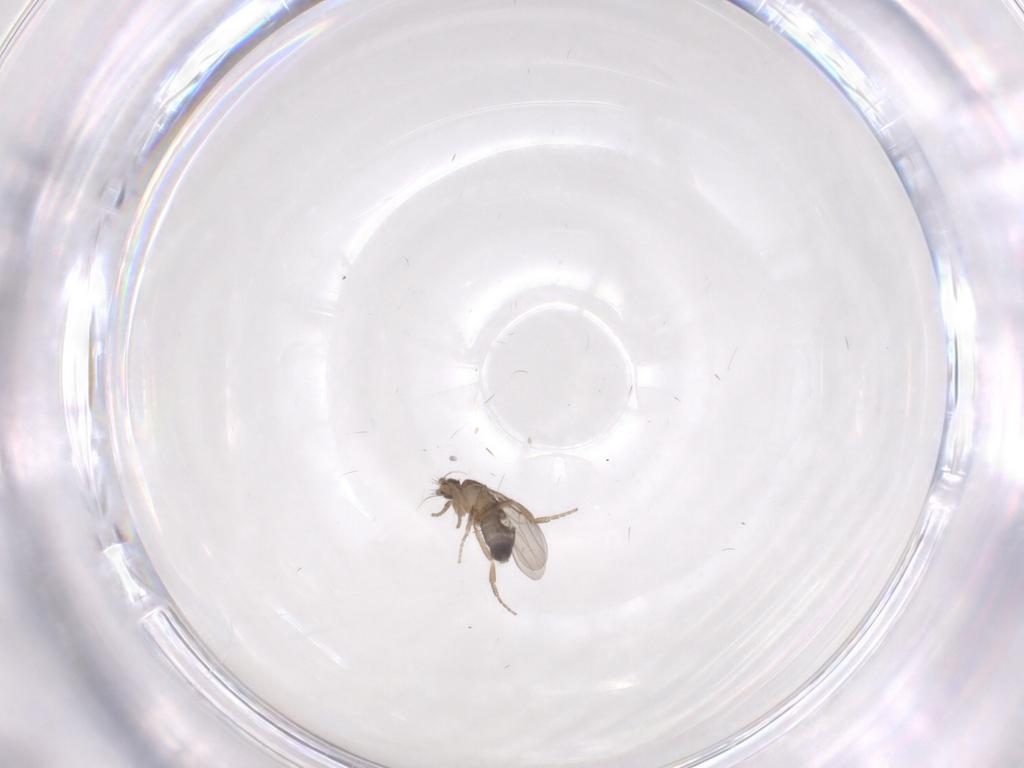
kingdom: Animalia
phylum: Arthropoda
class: Insecta
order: Diptera
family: Phoridae
